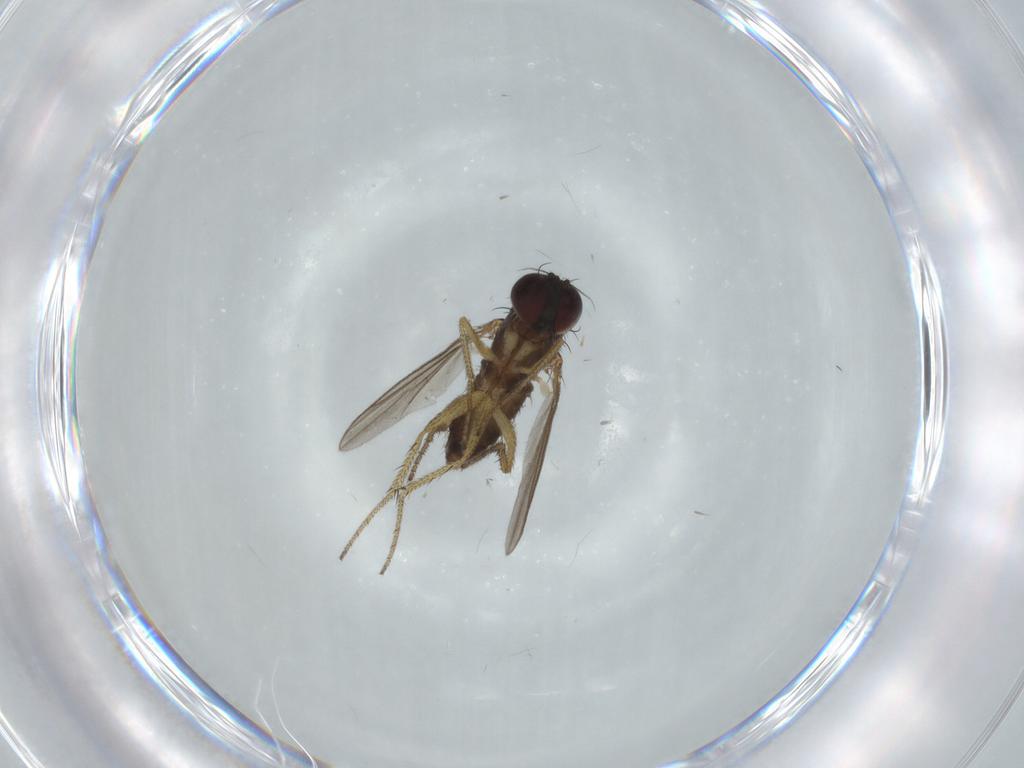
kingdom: Animalia
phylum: Arthropoda
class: Insecta
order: Diptera
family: Dolichopodidae
